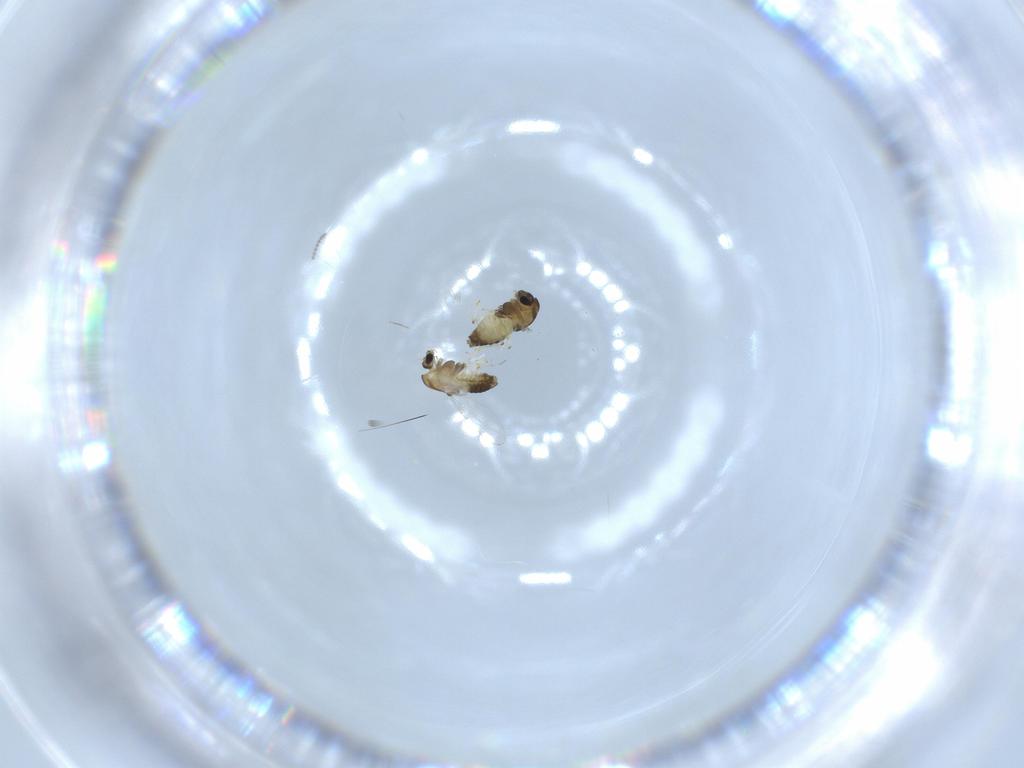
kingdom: Animalia
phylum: Arthropoda
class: Insecta
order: Diptera
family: Chironomidae
